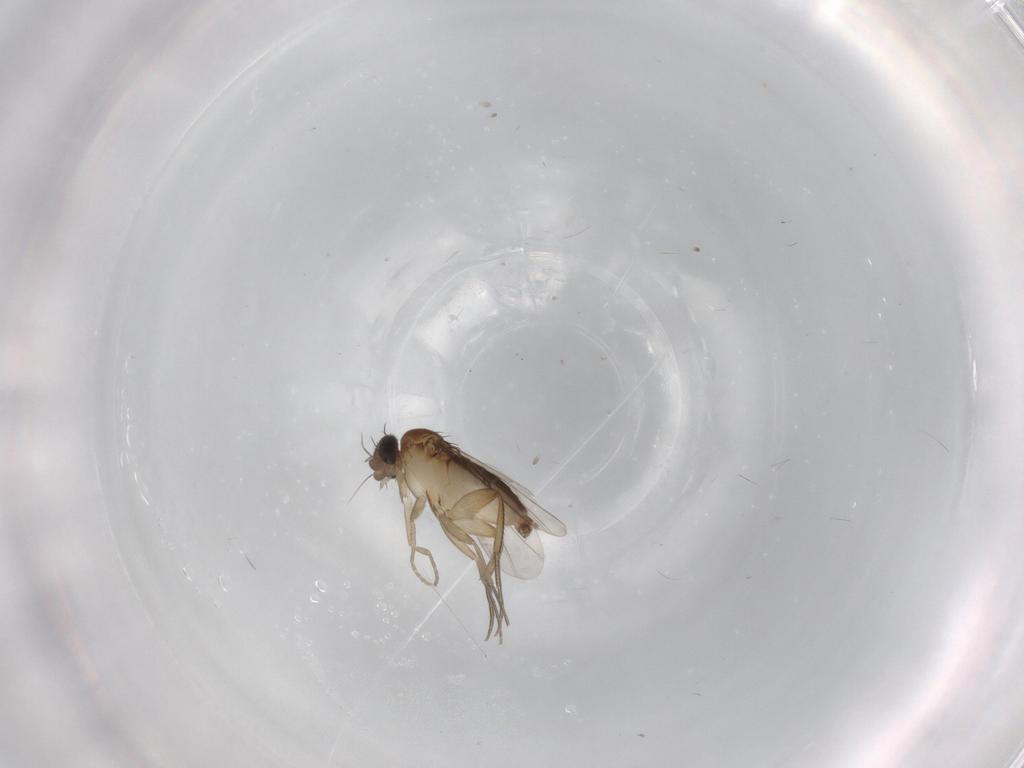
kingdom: Animalia
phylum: Arthropoda
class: Insecta
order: Diptera
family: Phoridae
